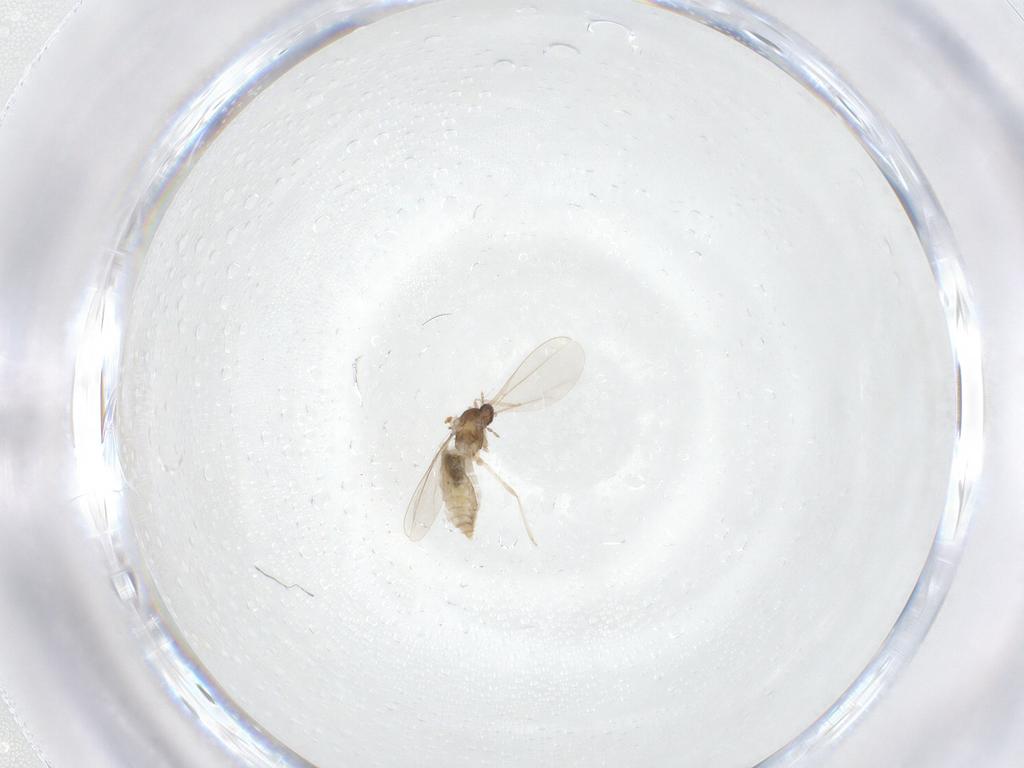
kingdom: Animalia
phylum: Arthropoda
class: Insecta
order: Diptera
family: Cecidomyiidae
